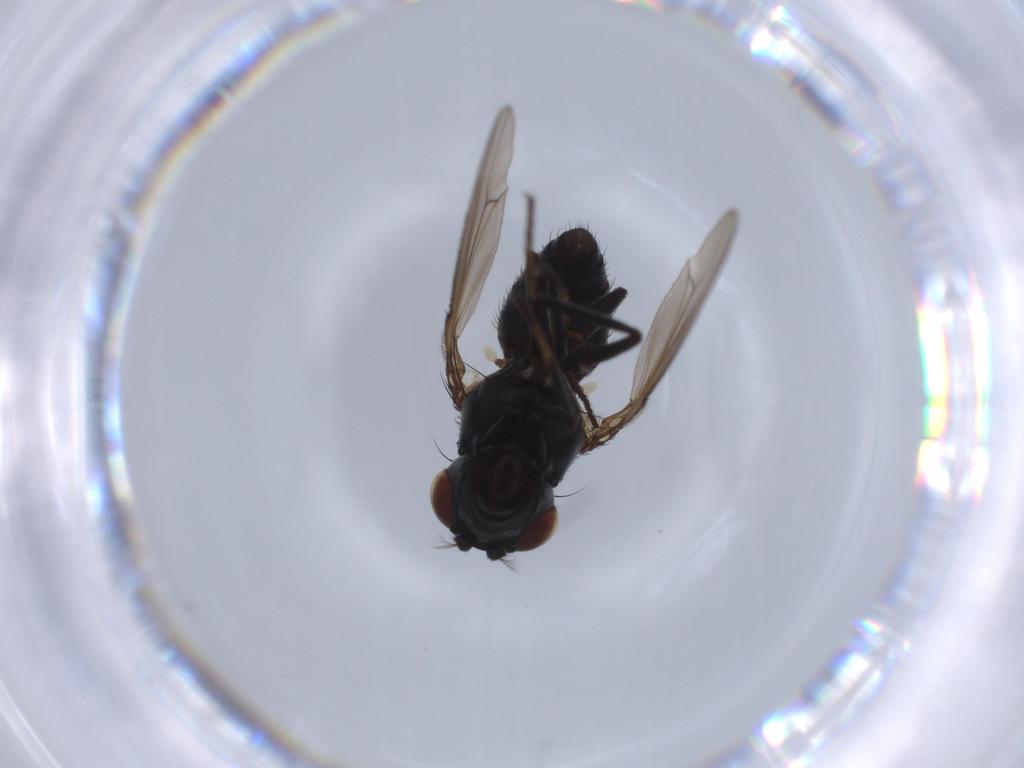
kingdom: Animalia
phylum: Arthropoda
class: Insecta
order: Diptera
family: Ephydridae
